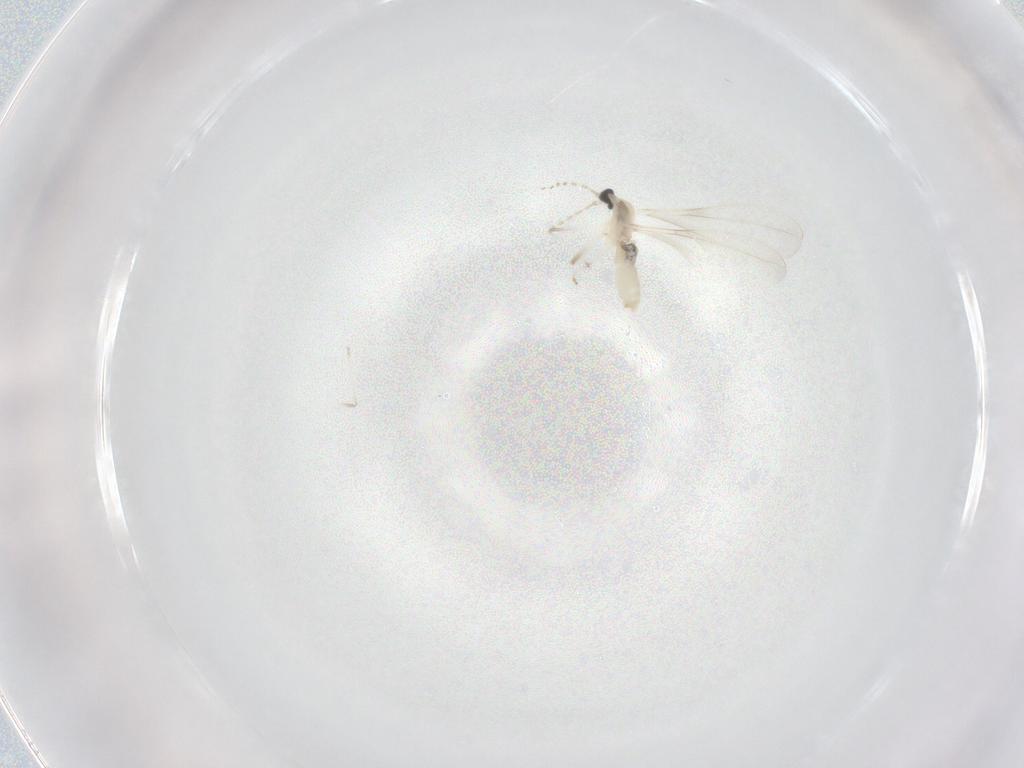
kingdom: Animalia
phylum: Arthropoda
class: Insecta
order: Diptera
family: Cecidomyiidae
